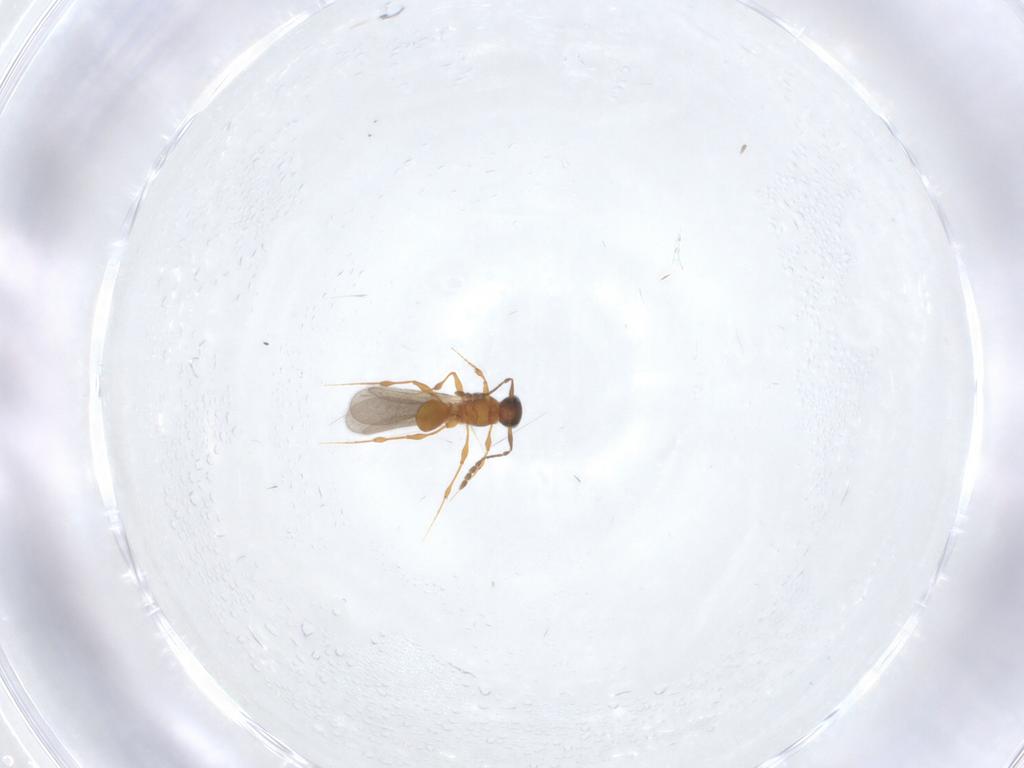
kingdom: Animalia
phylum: Arthropoda
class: Insecta
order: Hymenoptera
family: Platygastridae
